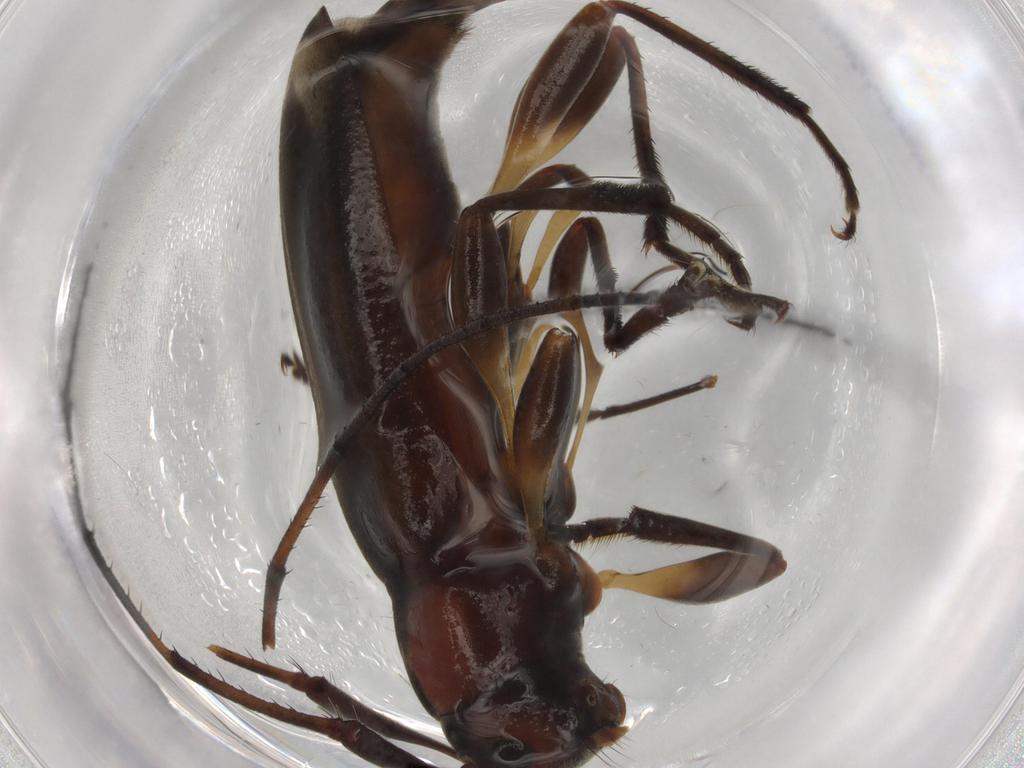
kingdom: Animalia
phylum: Arthropoda
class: Insecta
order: Coleoptera
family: Cerambycidae
